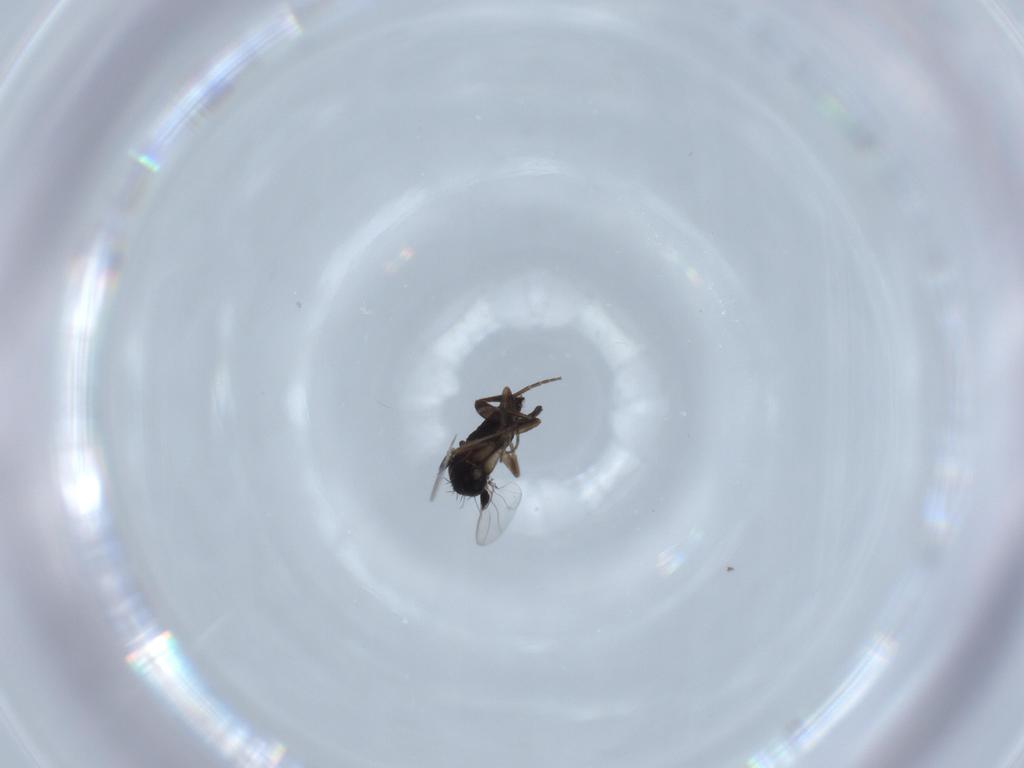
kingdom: Animalia
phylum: Arthropoda
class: Insecta
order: Diptera
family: Phoridae
